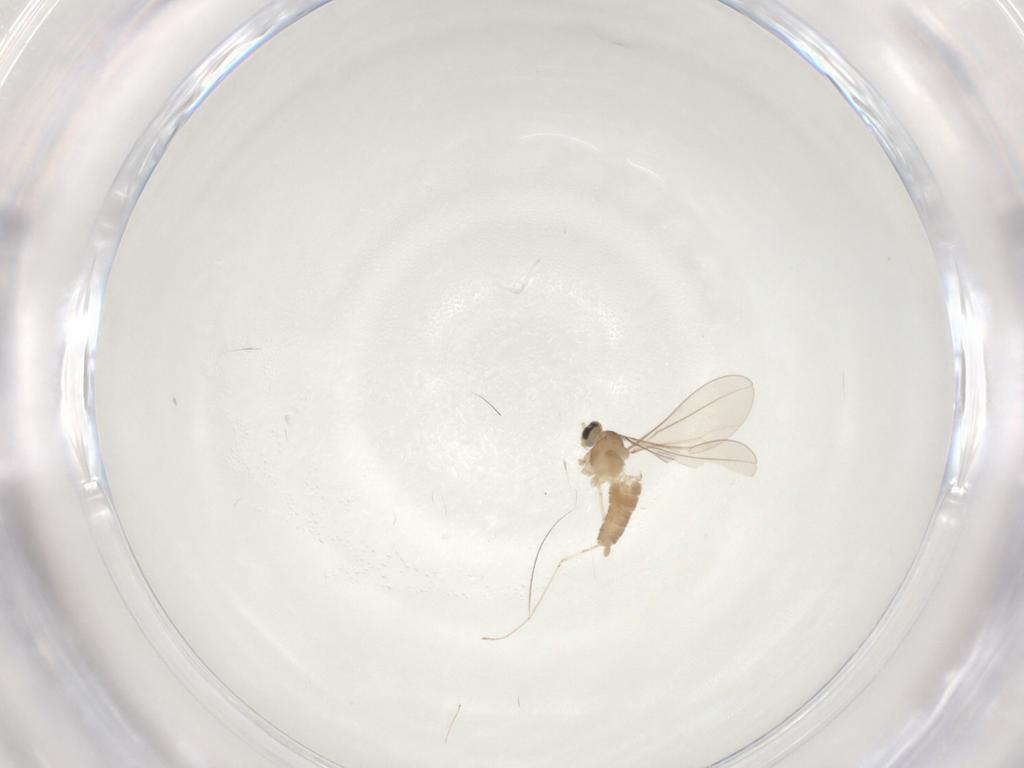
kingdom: Animalia
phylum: Arthropoda
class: Insecta
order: Diptera
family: Cecidomyiidae
